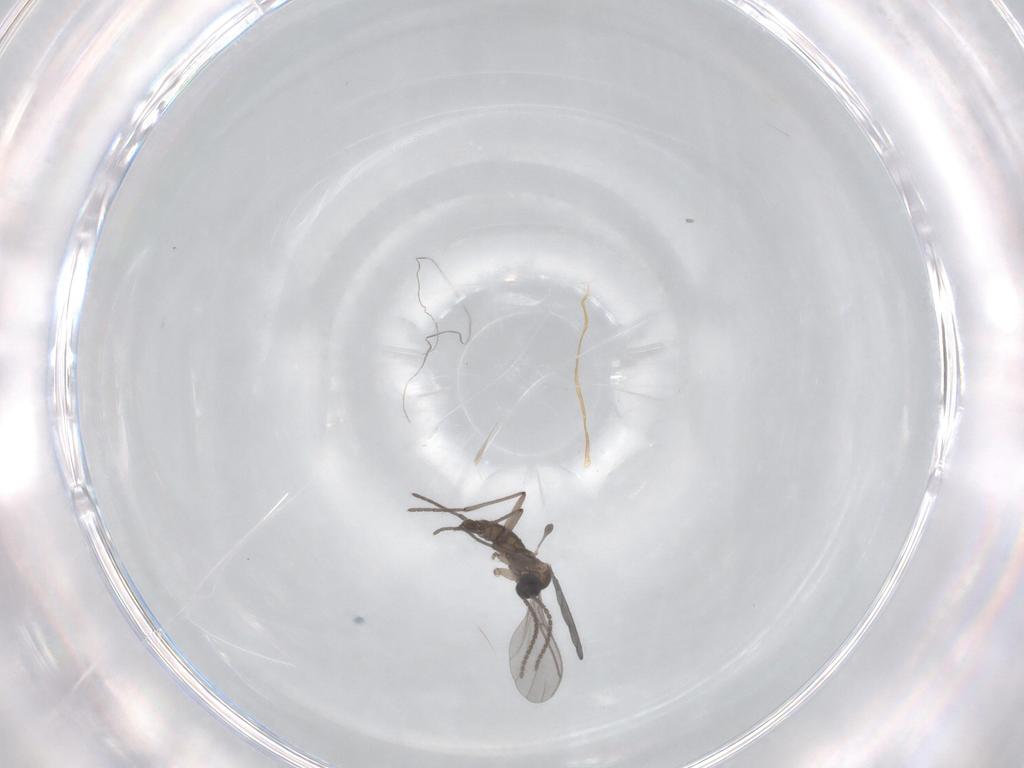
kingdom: Animalia
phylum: Arthropoda
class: Insecta
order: Diptera
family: Sciaridae
